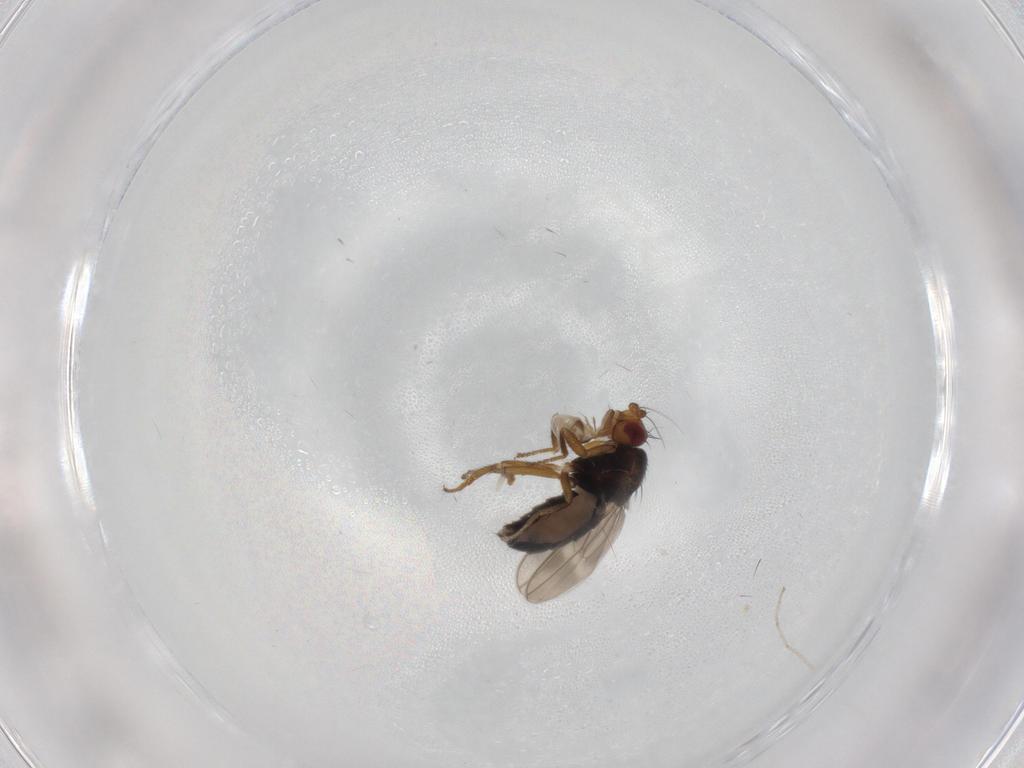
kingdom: Animalia
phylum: Arthropoda
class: Insecta
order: Diptera
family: Sphaeroceridae
